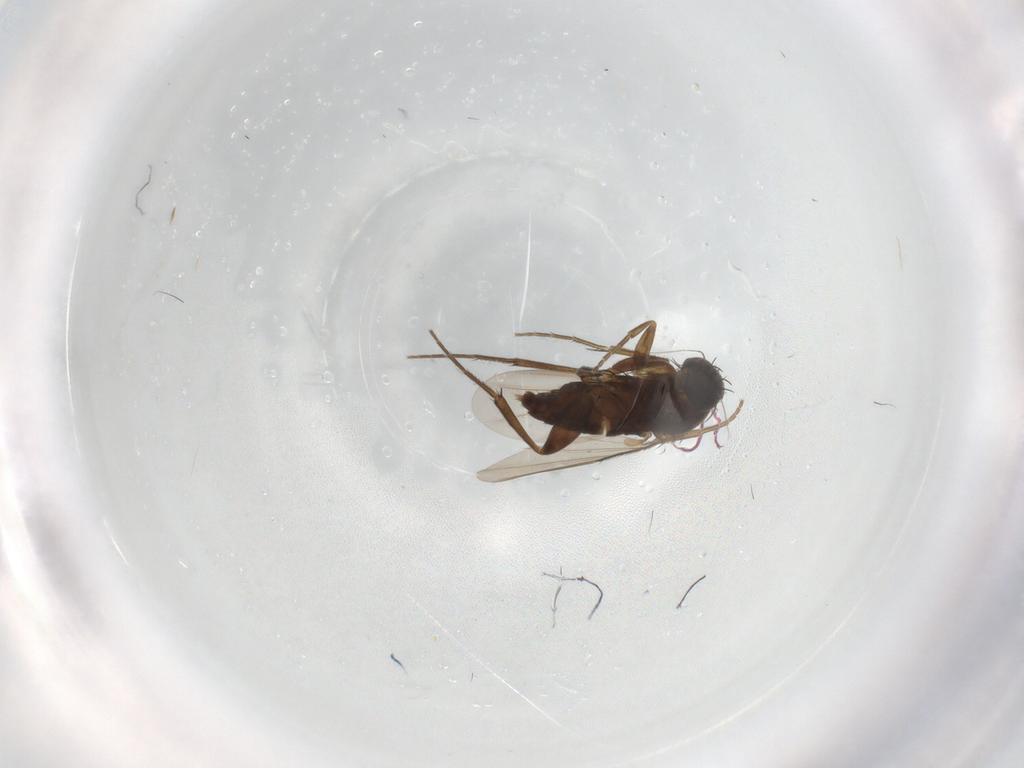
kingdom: Animalia
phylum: Arthropoda
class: Insecta
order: Diptera
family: Phoridae
